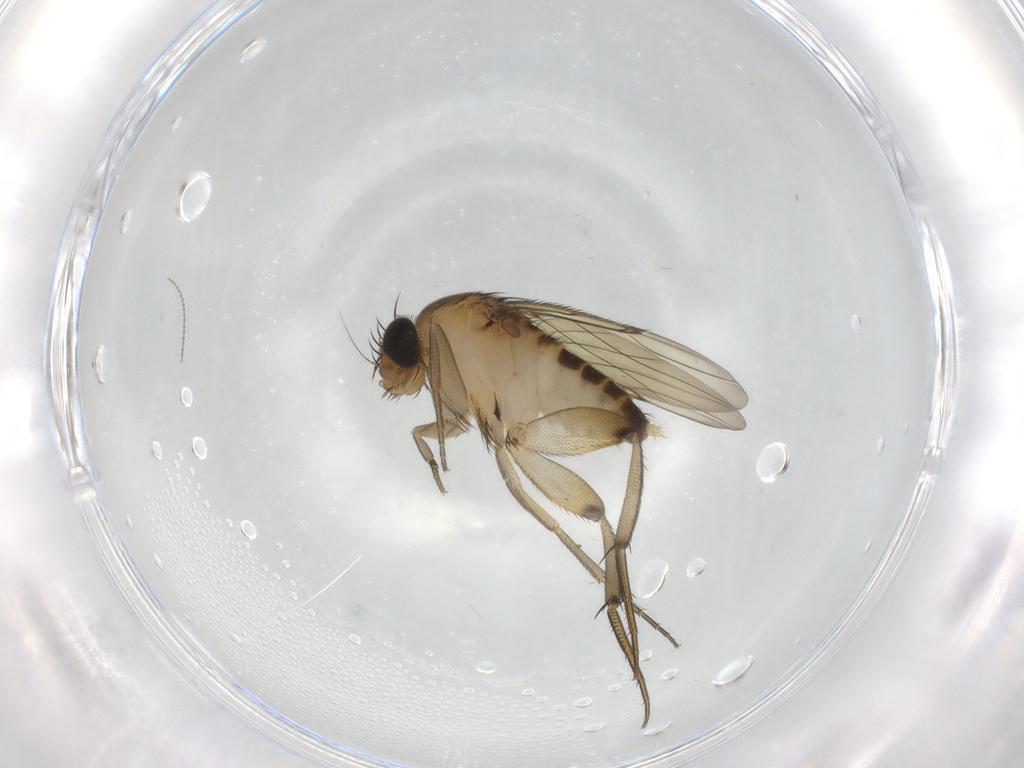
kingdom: Animalia
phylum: Arthropoda
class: Insecta
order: Diptera
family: Phoridae
